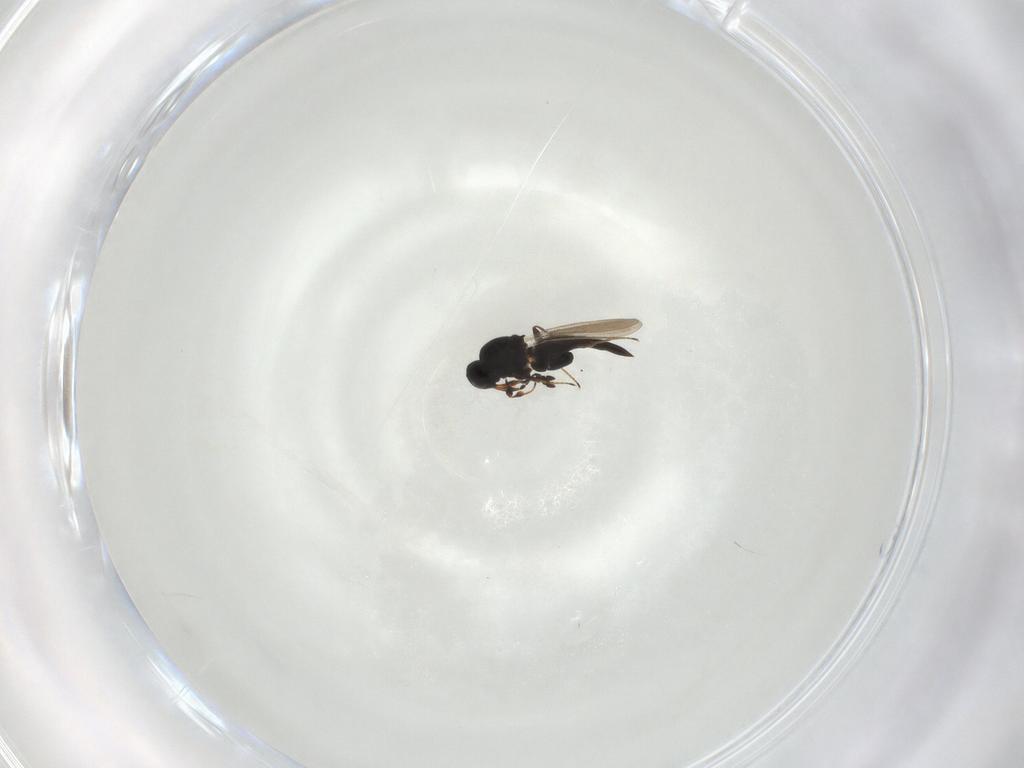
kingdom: Animalia
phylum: Arthropoda
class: Insecta
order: Hymenoptera
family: Platygastridae
